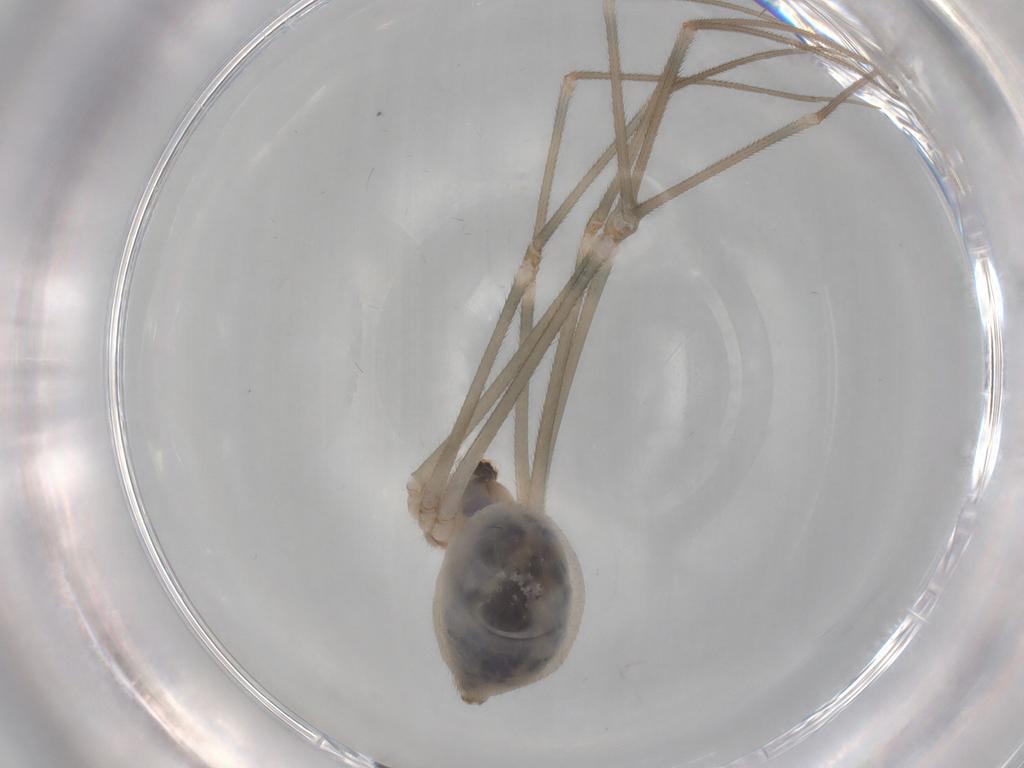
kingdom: Animalia
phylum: Arthropoda
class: Arachnida
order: Araneae
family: Pholcidae
